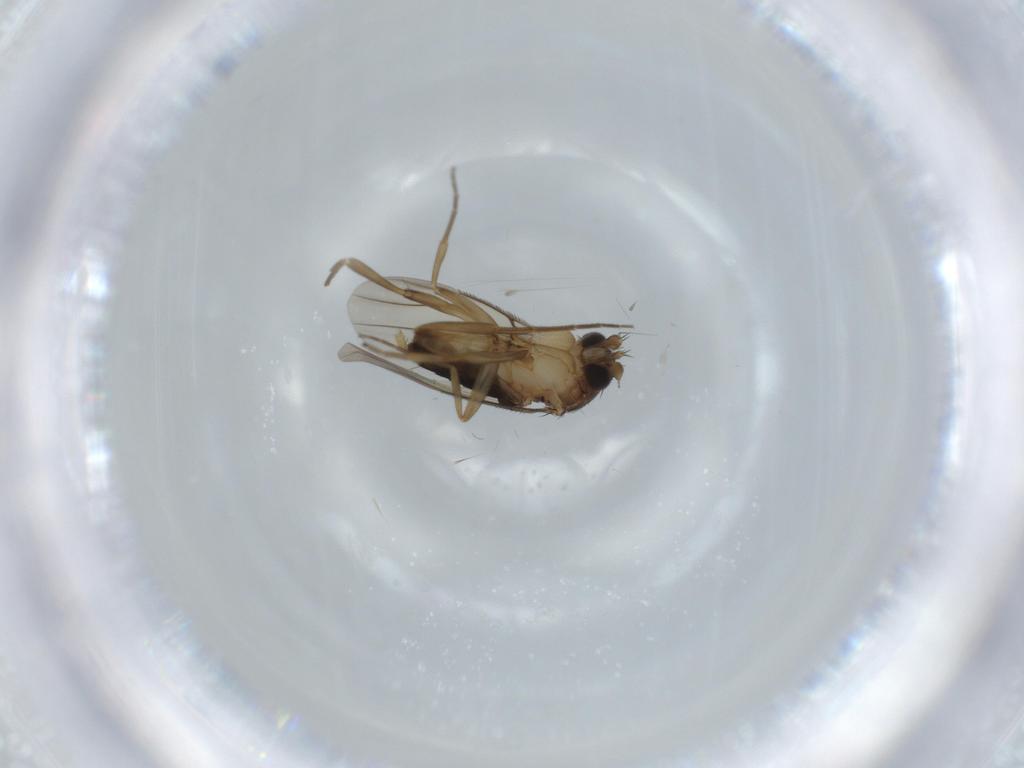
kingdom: Animalia
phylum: Arthropoda
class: Insecta
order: Diptera
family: Phoridae
